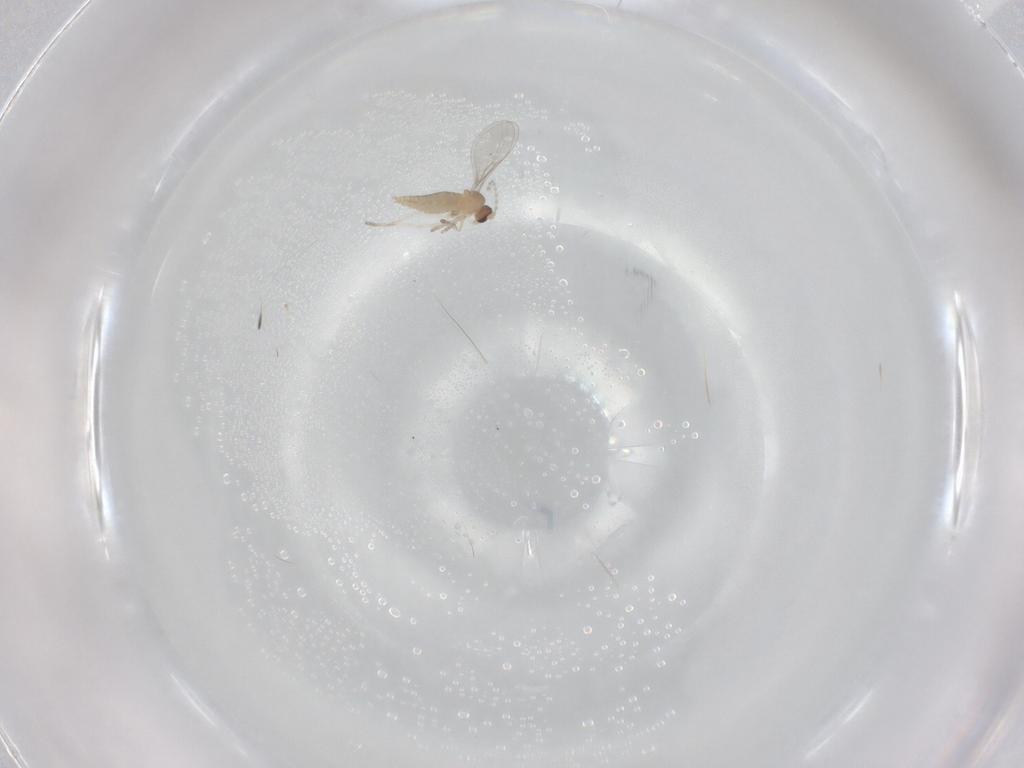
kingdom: Animalia
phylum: Arthropoda
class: Insecta
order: Diptera
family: Cecidomyiidae
